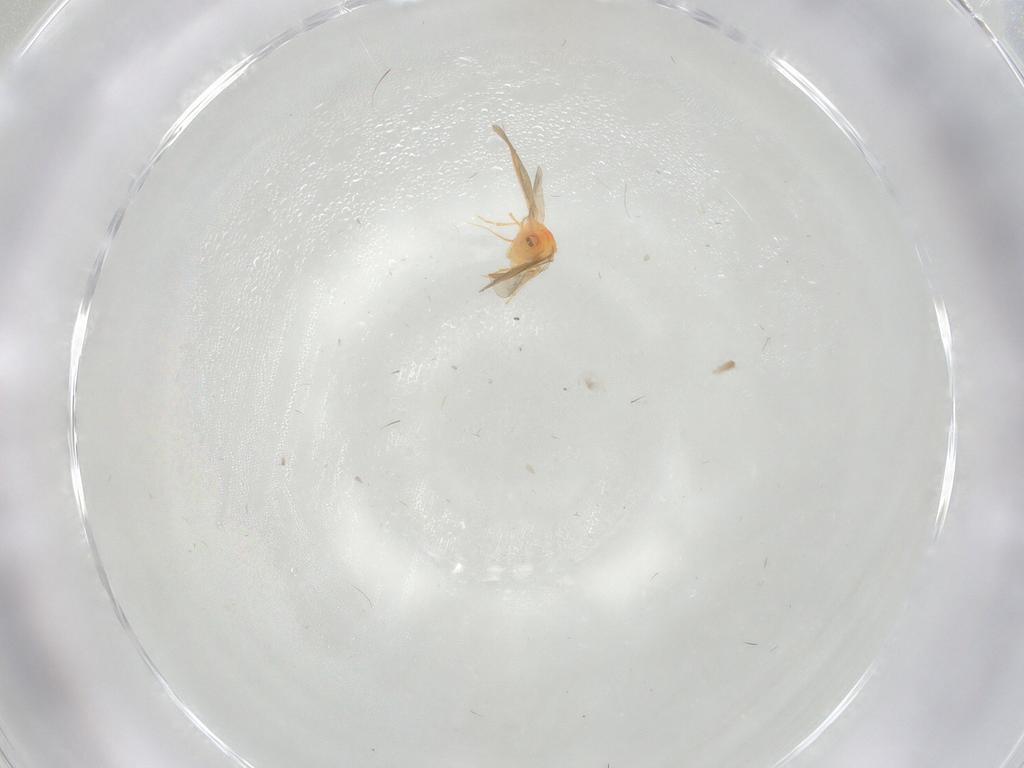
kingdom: Animalia
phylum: Arthropoda
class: Insecta
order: Hemiptera
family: Aleyrodidae
